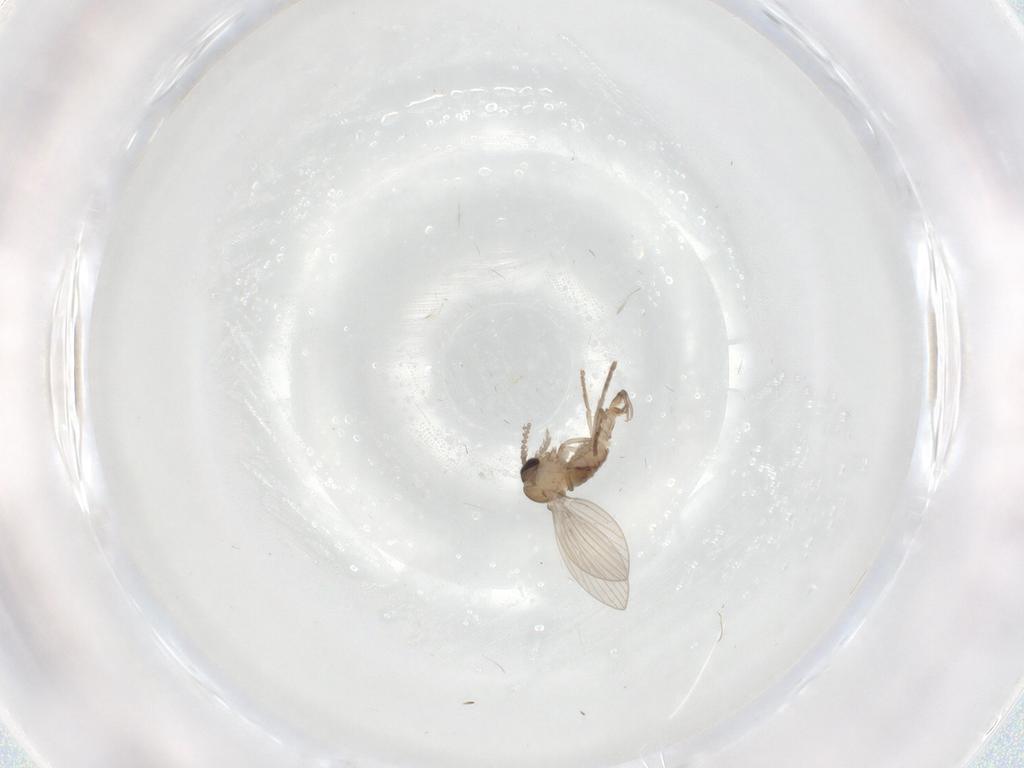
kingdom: Animalia
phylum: Arthropoda
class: Insecta
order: Diptera
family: Psychodidae
